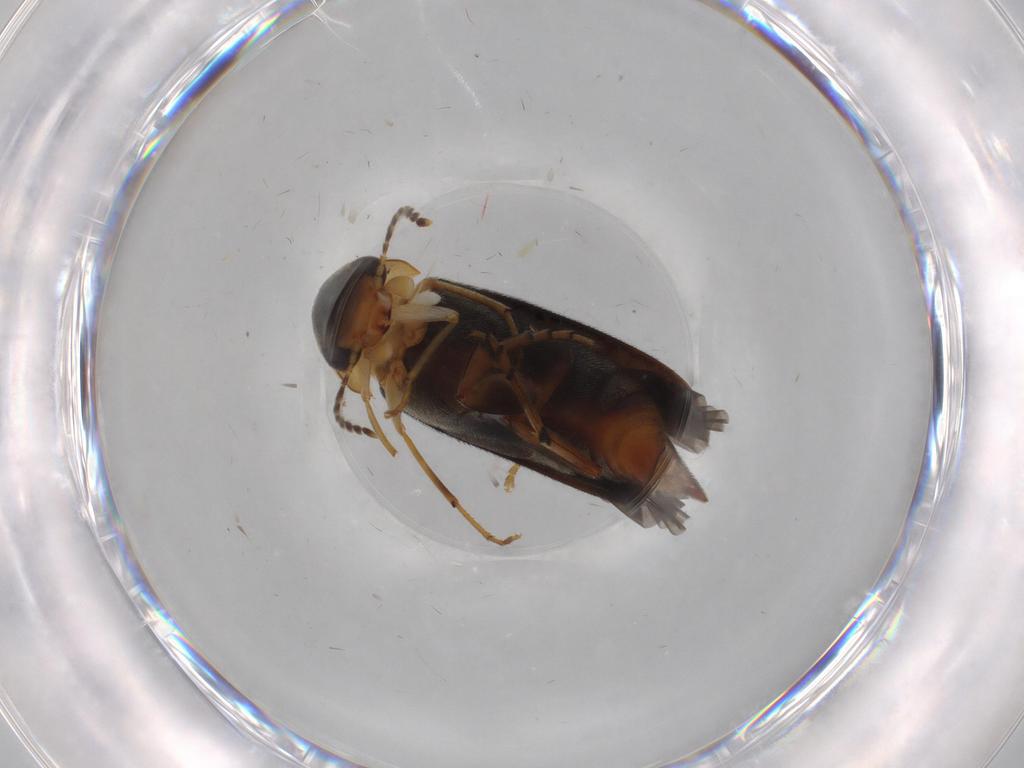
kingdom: Animalia
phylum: Arthropoda
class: Insecta
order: Coleoptera
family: Mordellidae
